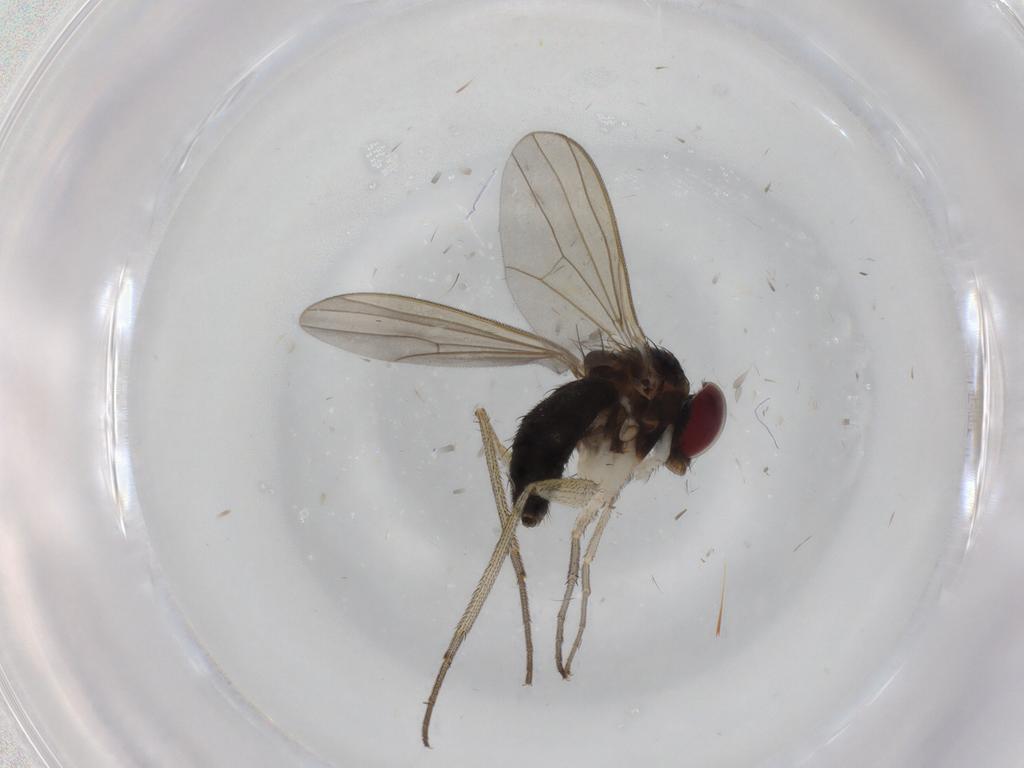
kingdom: Animalia
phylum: Arthropoda
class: Insecta
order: Diptera
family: Dolichopodidae
